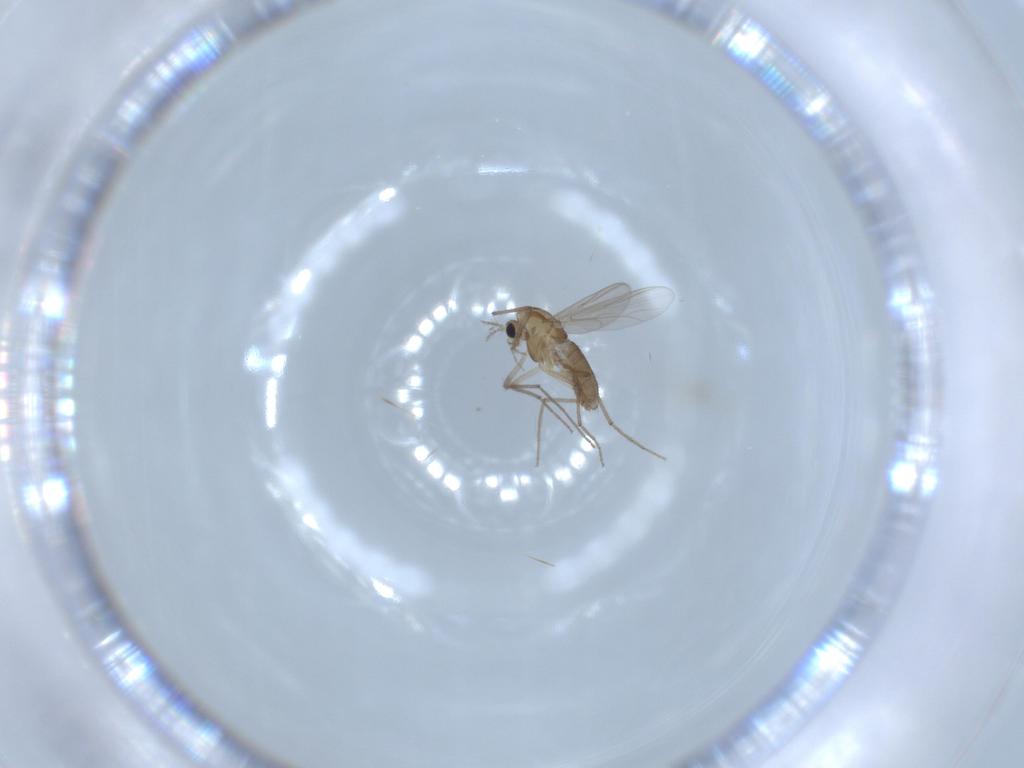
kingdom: Animalia
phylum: Arthropoda
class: Insecta
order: Diptera
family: Chironomidae
